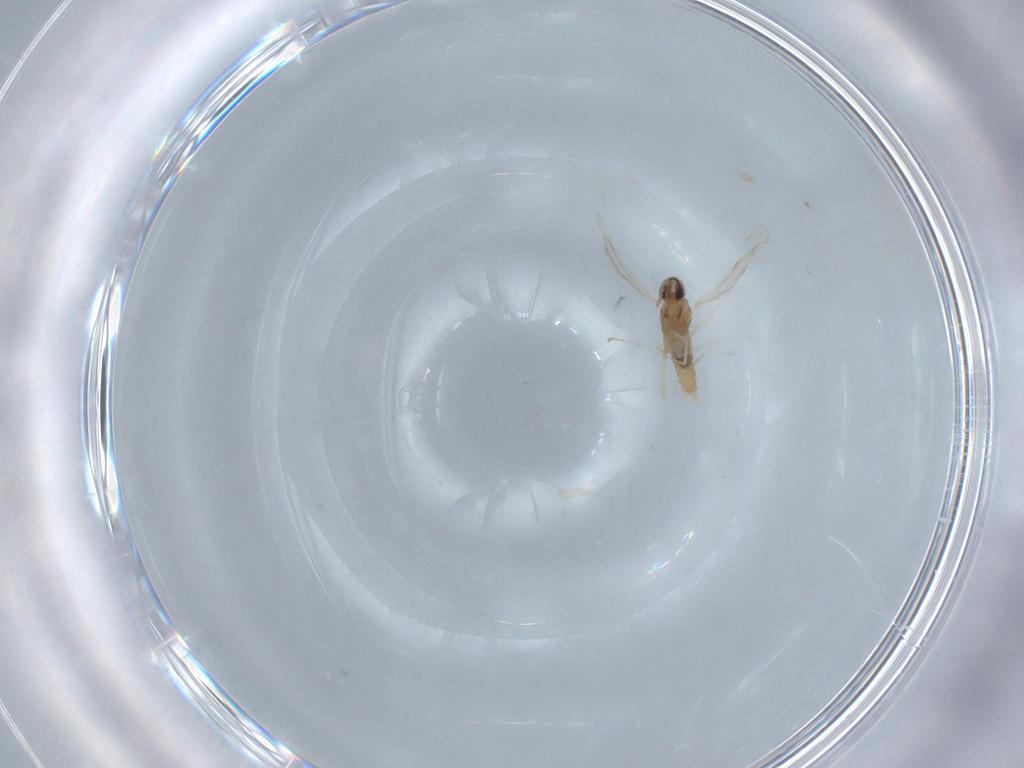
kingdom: Animalia
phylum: Arthropoda
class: Insecta
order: Diptera
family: Cecidomyiidae
